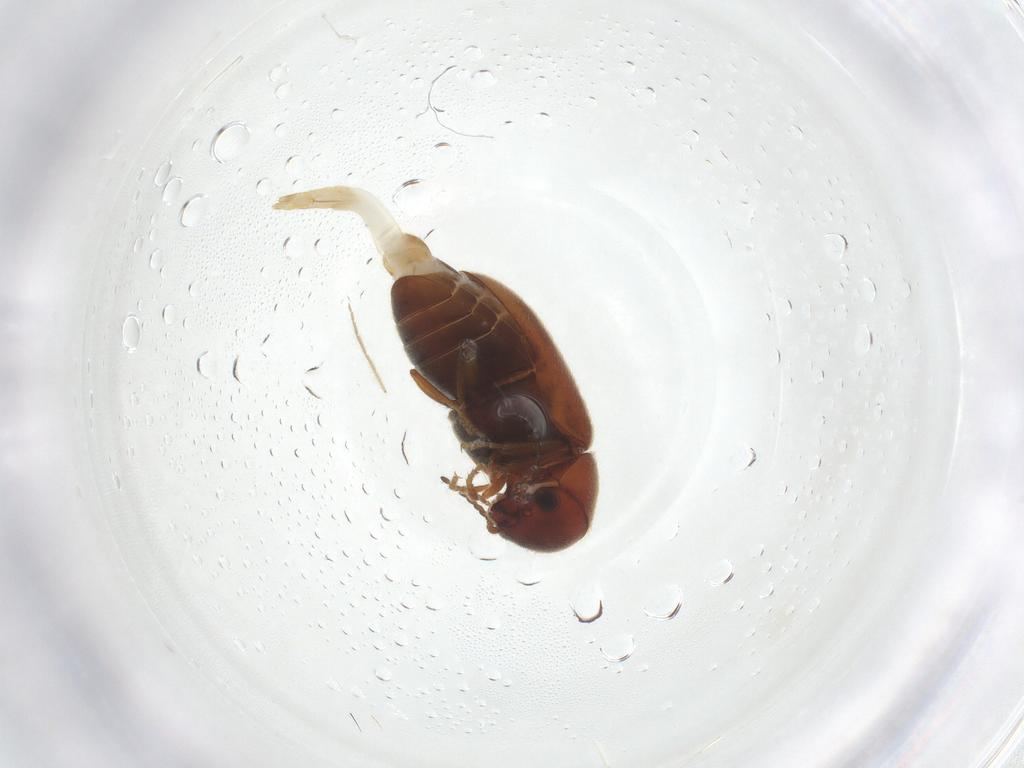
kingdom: Animalia
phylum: Arthropoda
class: Insecta
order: Coleoptera
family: Ptinidae
